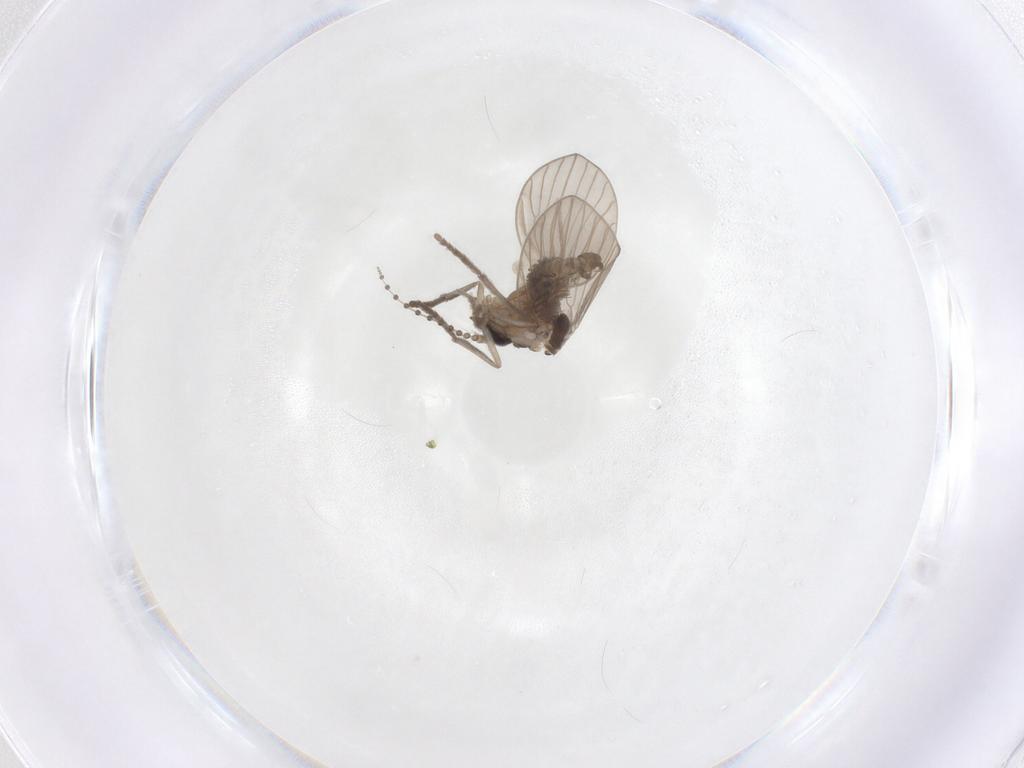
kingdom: Animalia
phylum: Arthropoda
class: Insecta
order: Diptera
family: Psychodidae
